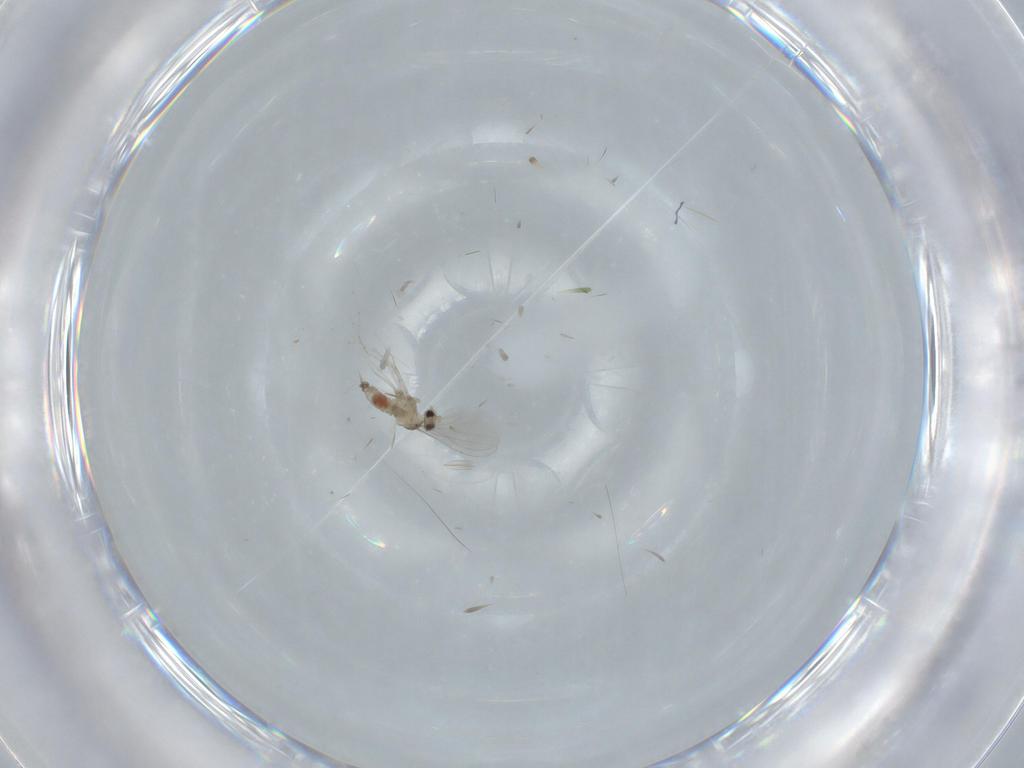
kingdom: Animalia
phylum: Arthropoda
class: Insecta
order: Diptera
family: Cecidomyiidae
